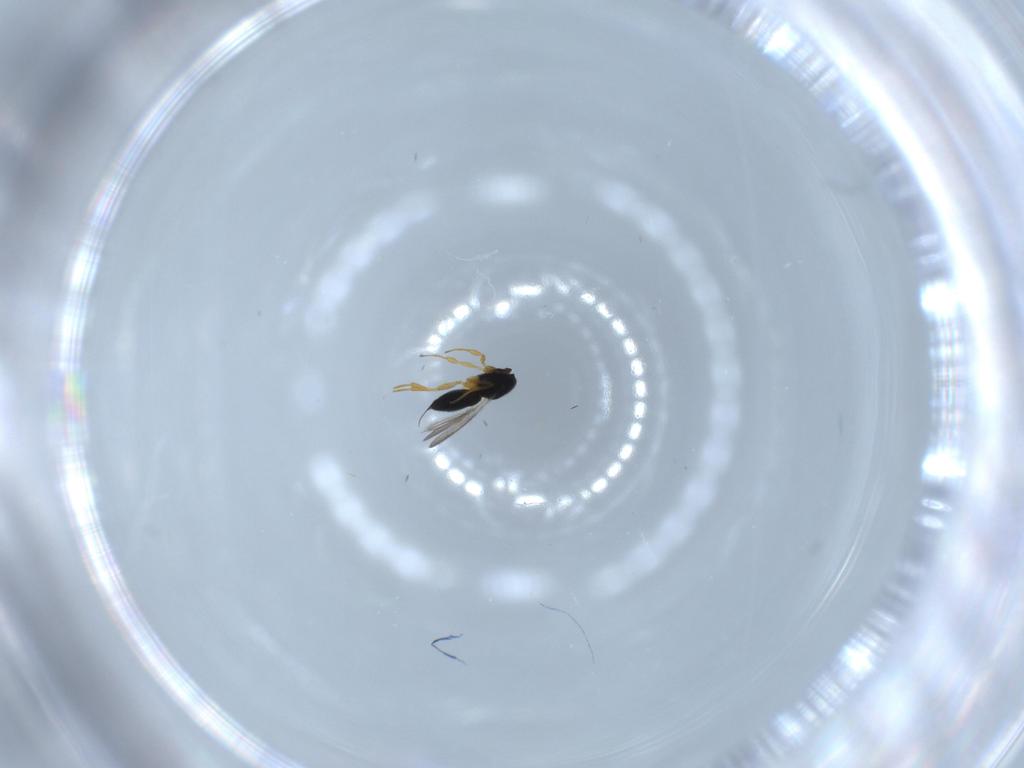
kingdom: Animalia
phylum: Arthropoda
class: Insecta
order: Hymenoptera
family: Scelionidae
